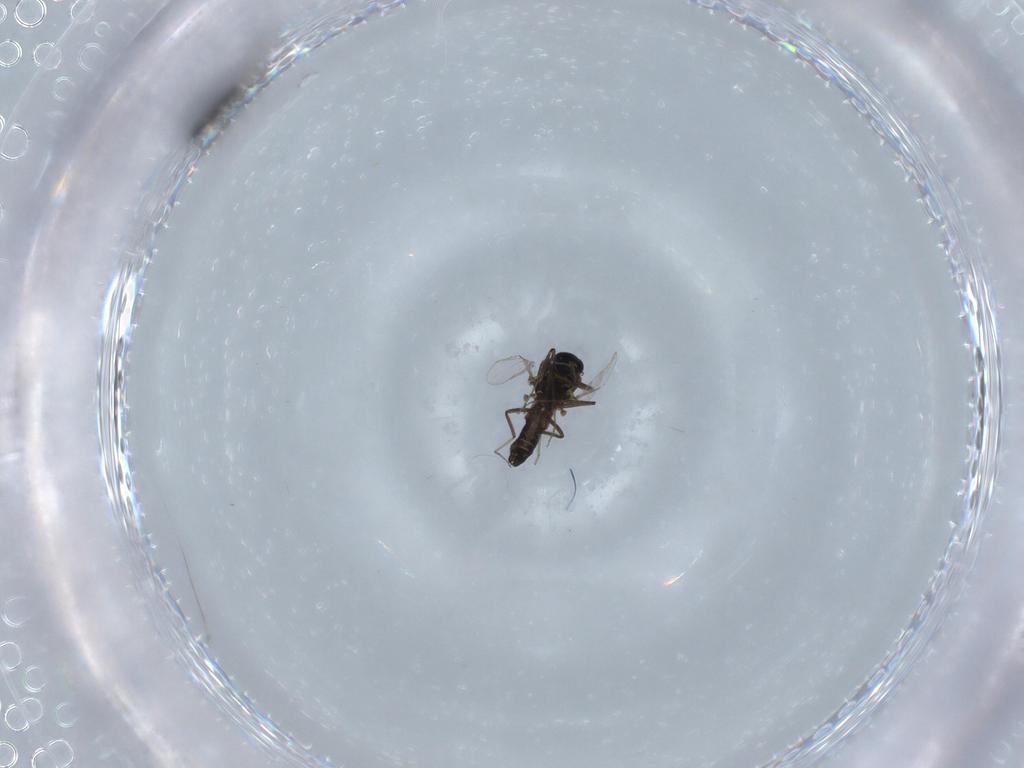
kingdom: Animalia
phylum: Arthropoda
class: Insecta
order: Diptera
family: Ceratopogonidae
